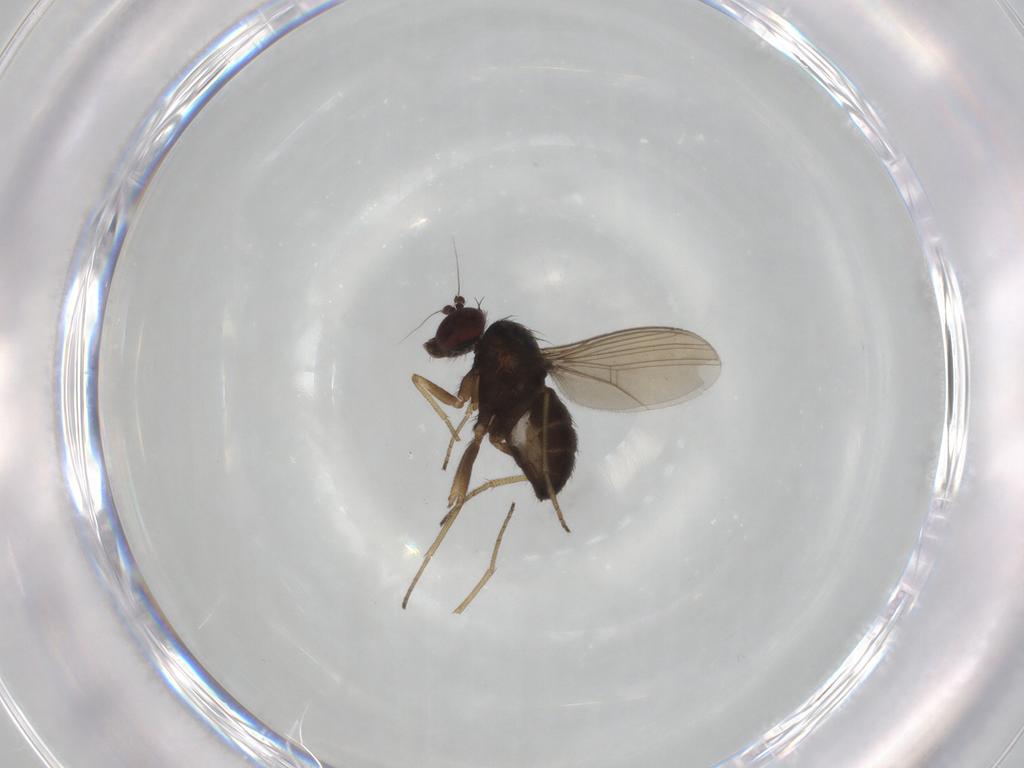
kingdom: Animalia
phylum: Arthropoda
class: Insecta
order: Diptera
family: Dolichopodidae
